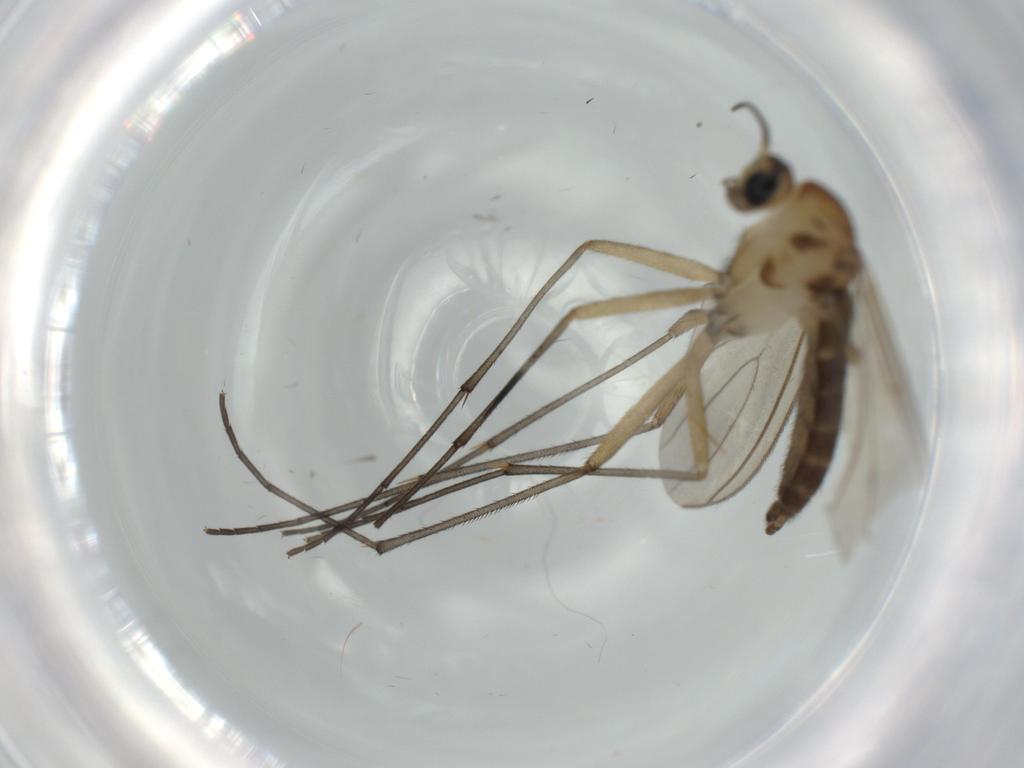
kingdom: Animalia
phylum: Arthropoda
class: Insecta
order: Diptera
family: Sciaridae
